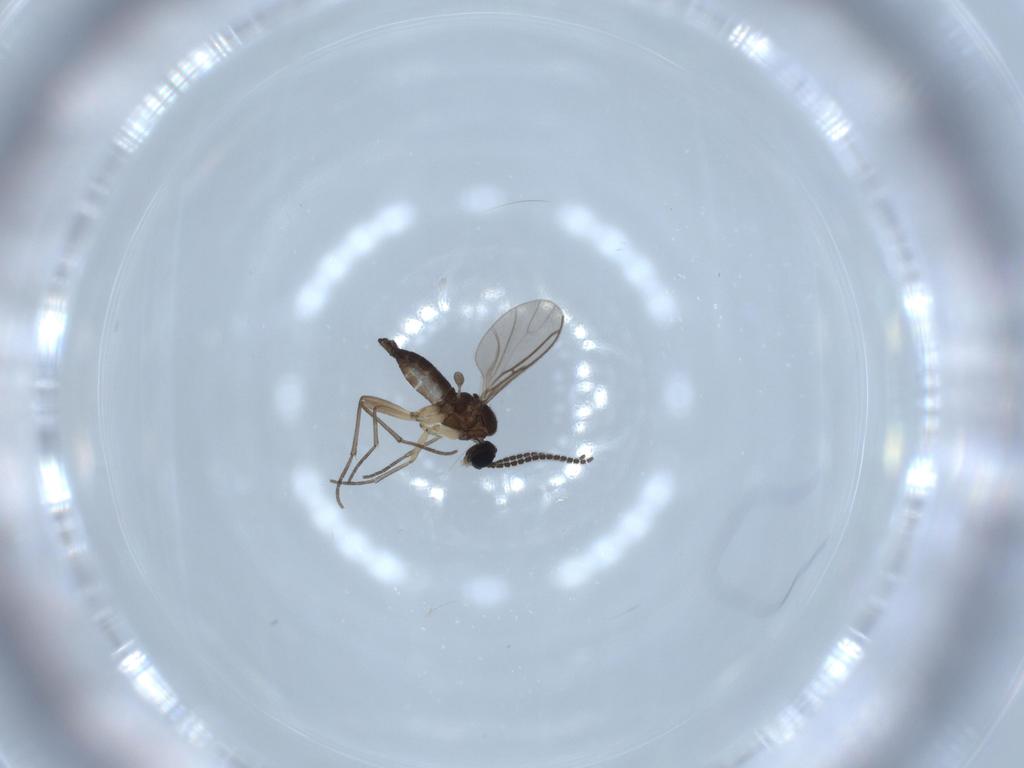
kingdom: Animalia
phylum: Arthropoda
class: Insecta
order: Diptera
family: Sciaridae
